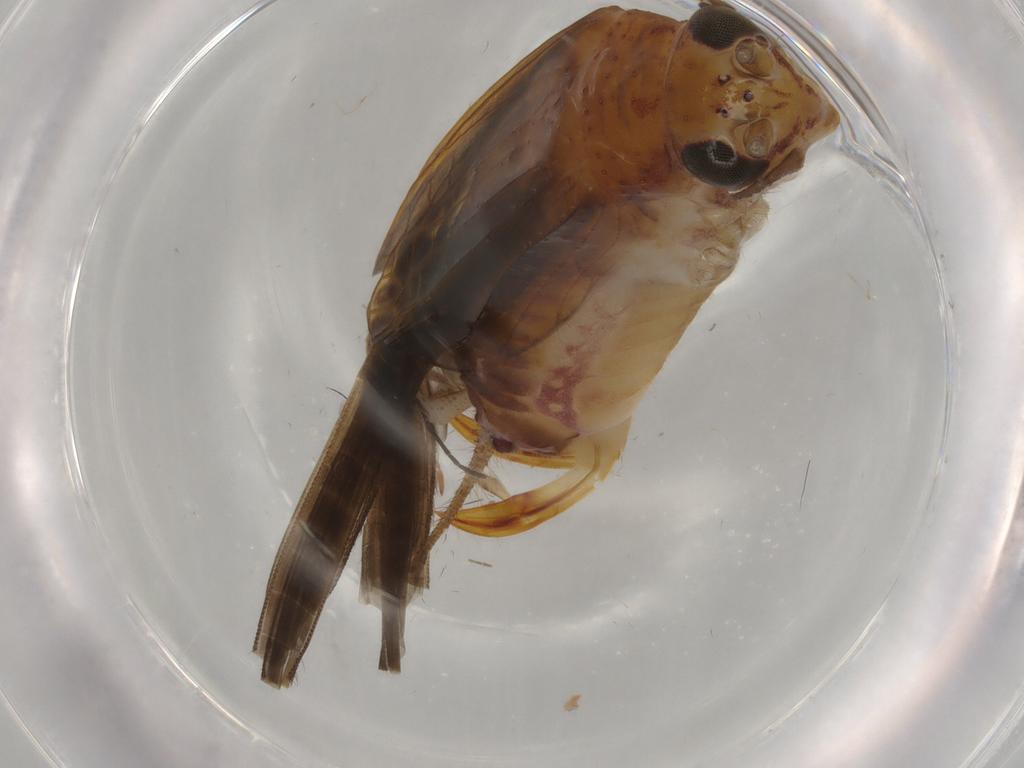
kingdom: Animalia
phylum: Arthropoda
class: Insecta
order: Orthoptera
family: Trigonidiidae
